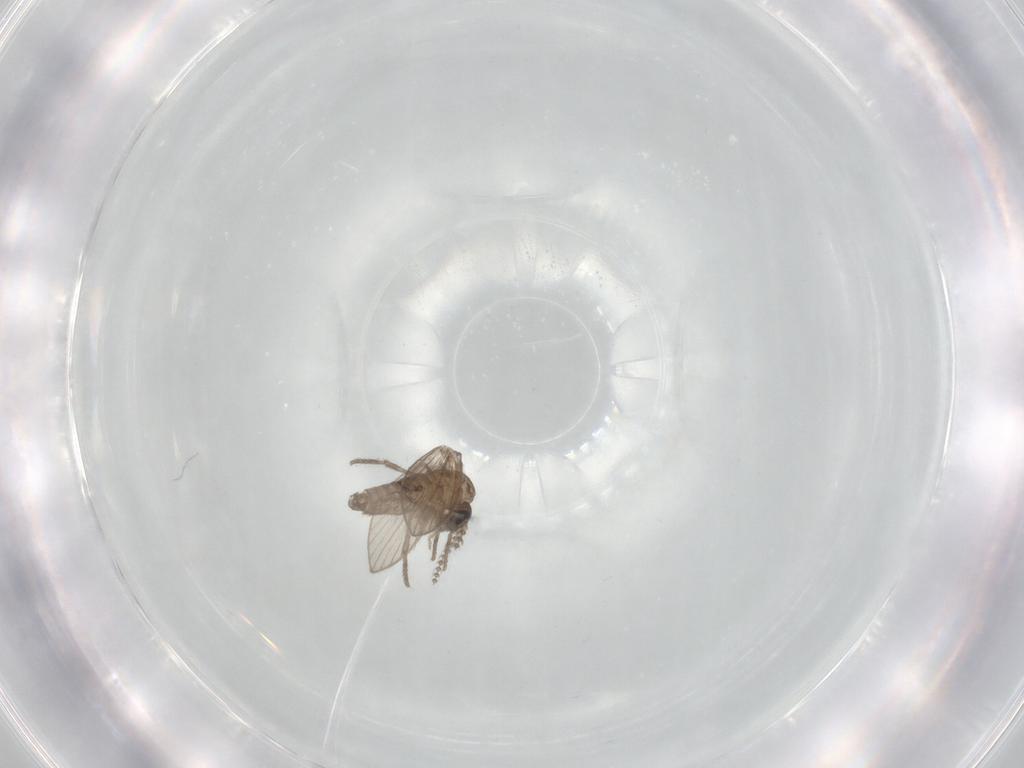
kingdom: Animalia
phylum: Arthropoda
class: Insecta
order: Diptera
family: Psychodidae
